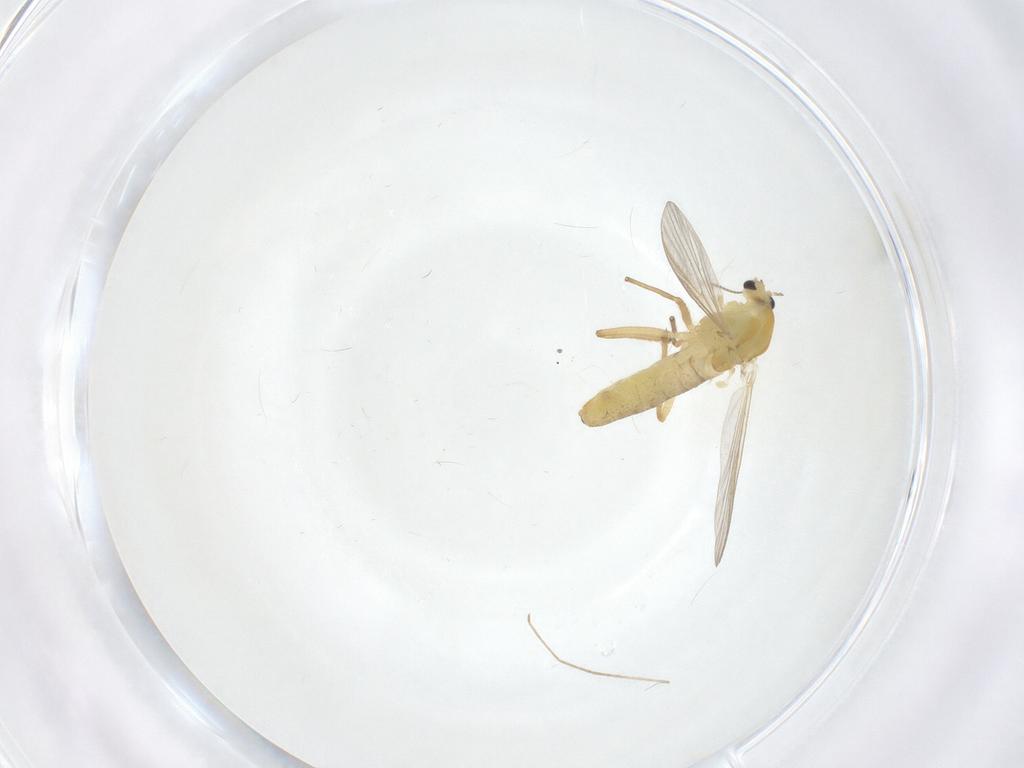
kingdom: Animalia
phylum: Arthropoda
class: Insecta
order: Diptera
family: Chironomidae
